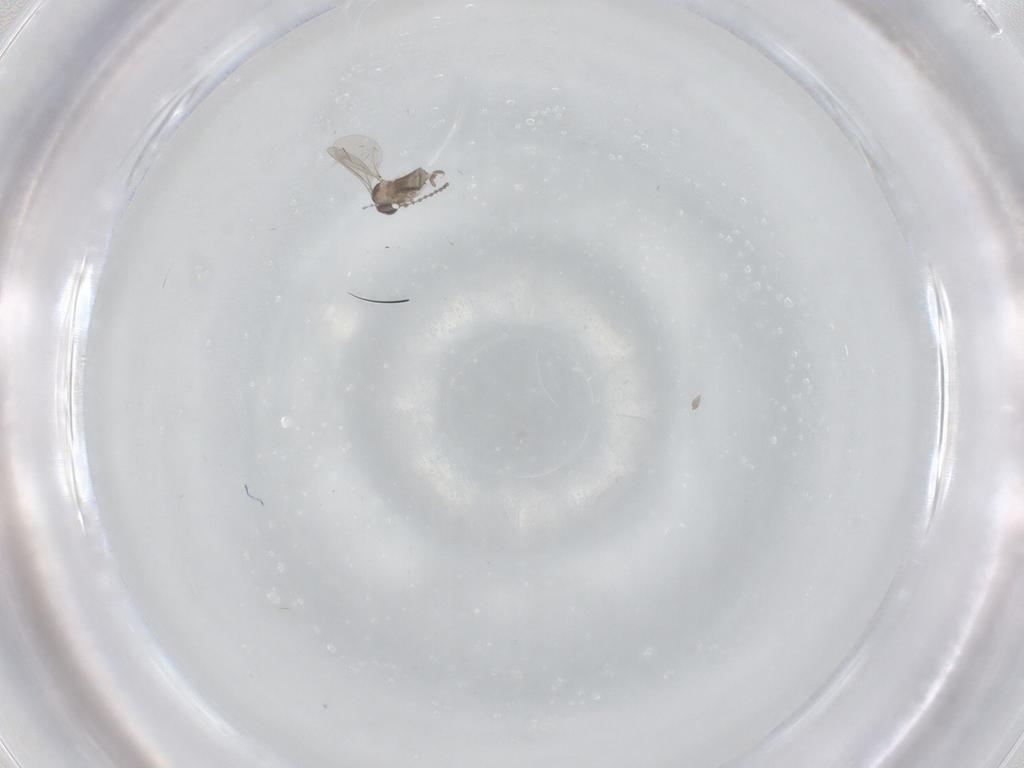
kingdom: Animalia
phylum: Arthropoda
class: Insecta
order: Diptera
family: Cecidomyiidae
